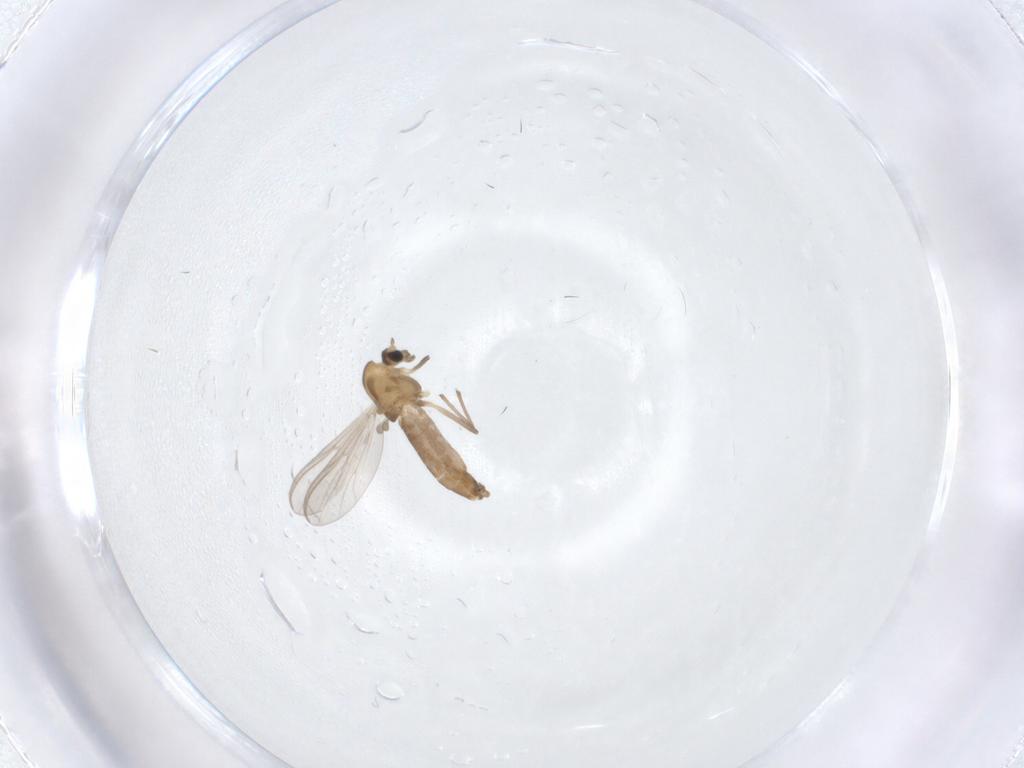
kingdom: Animalia
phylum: Arthropoda
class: Insecta
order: Diptera
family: Chironomidae
